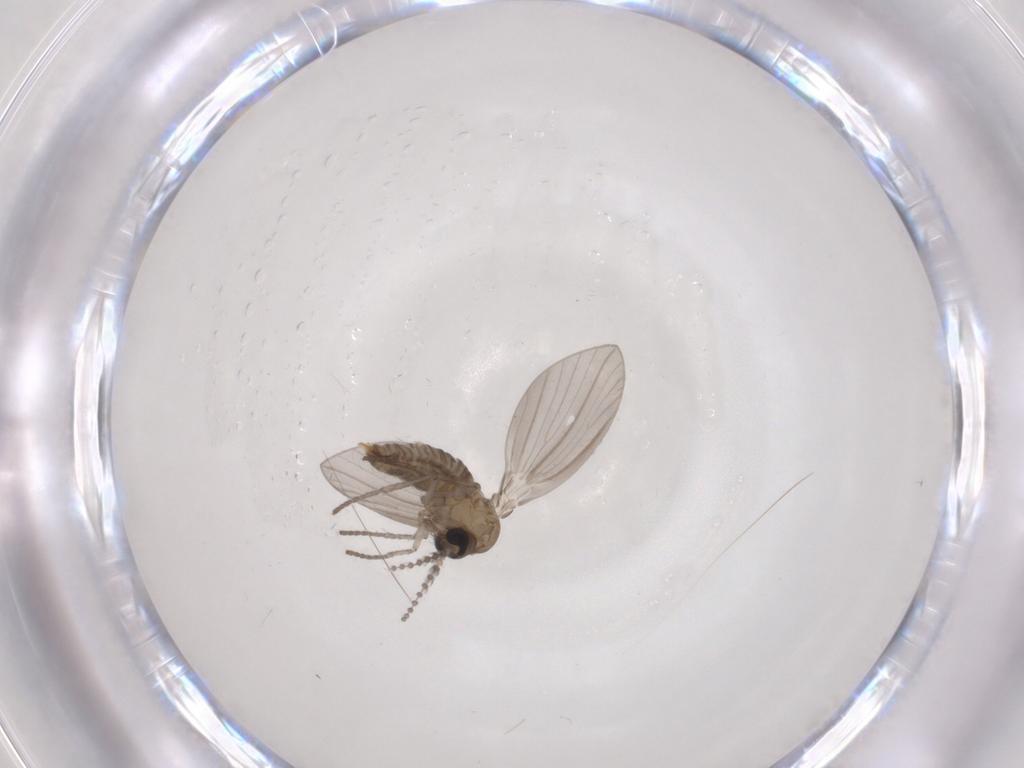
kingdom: Animalia
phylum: Arthropoda
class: Insecta
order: Diptera
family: Psychodidae
